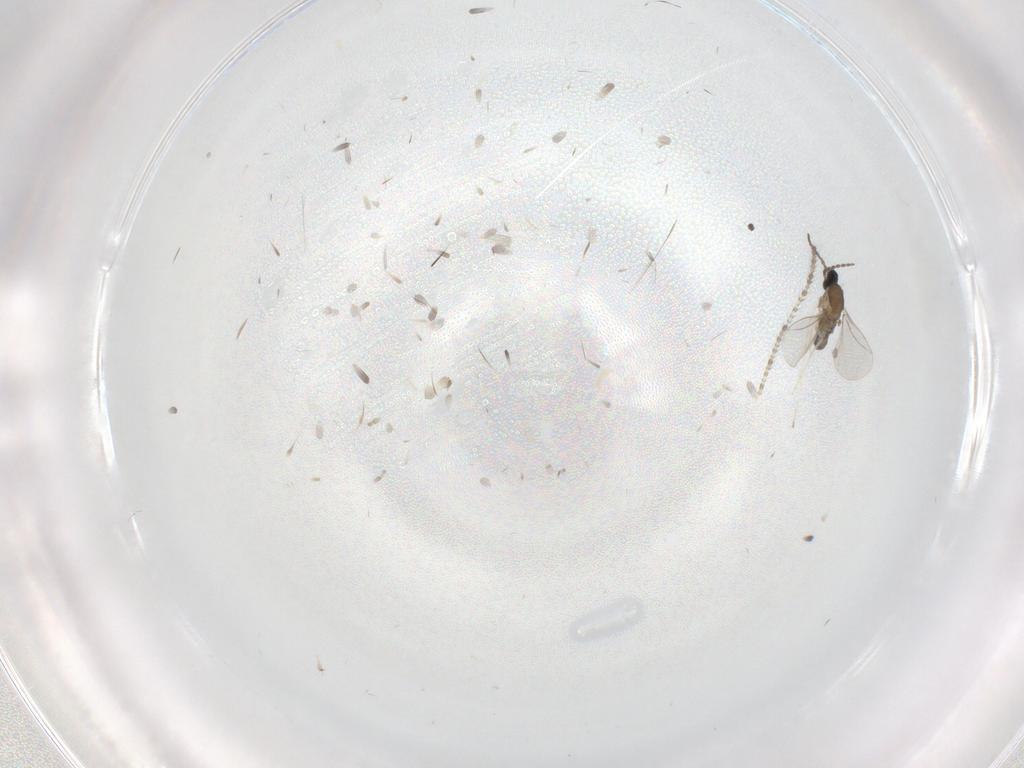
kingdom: Animalia
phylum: Arthropoda
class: Insecta
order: Diptera
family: Cecidomyiidae
